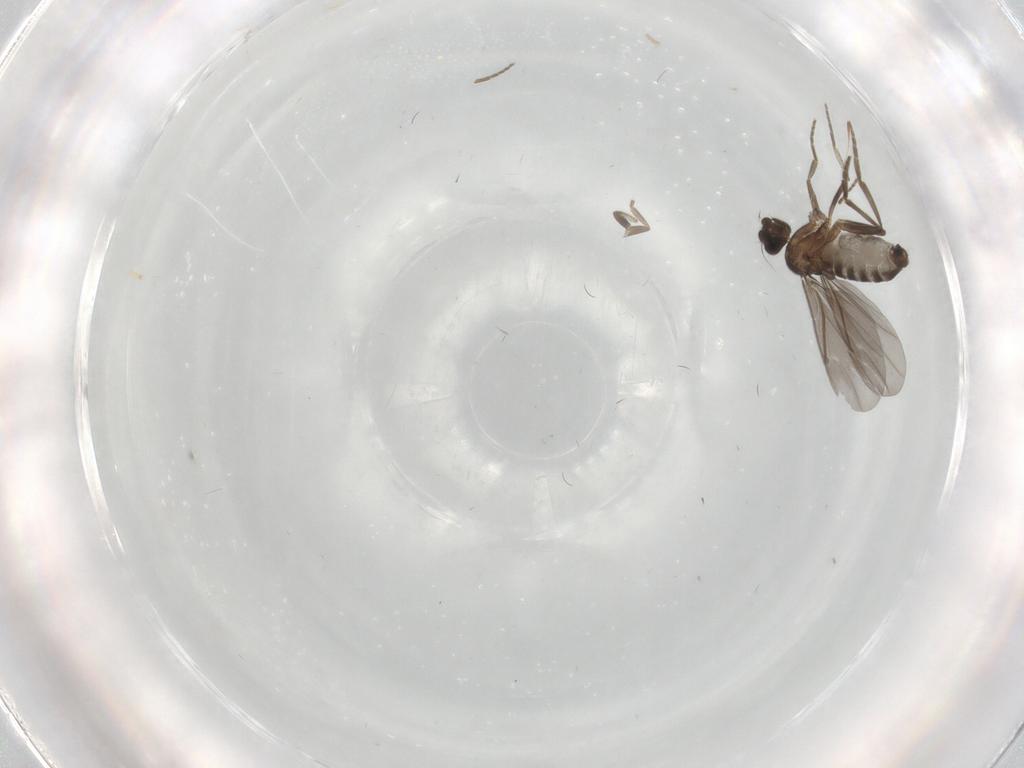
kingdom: Animalia
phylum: Arthropoda
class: Insecta
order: Diptera
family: Phoridae
